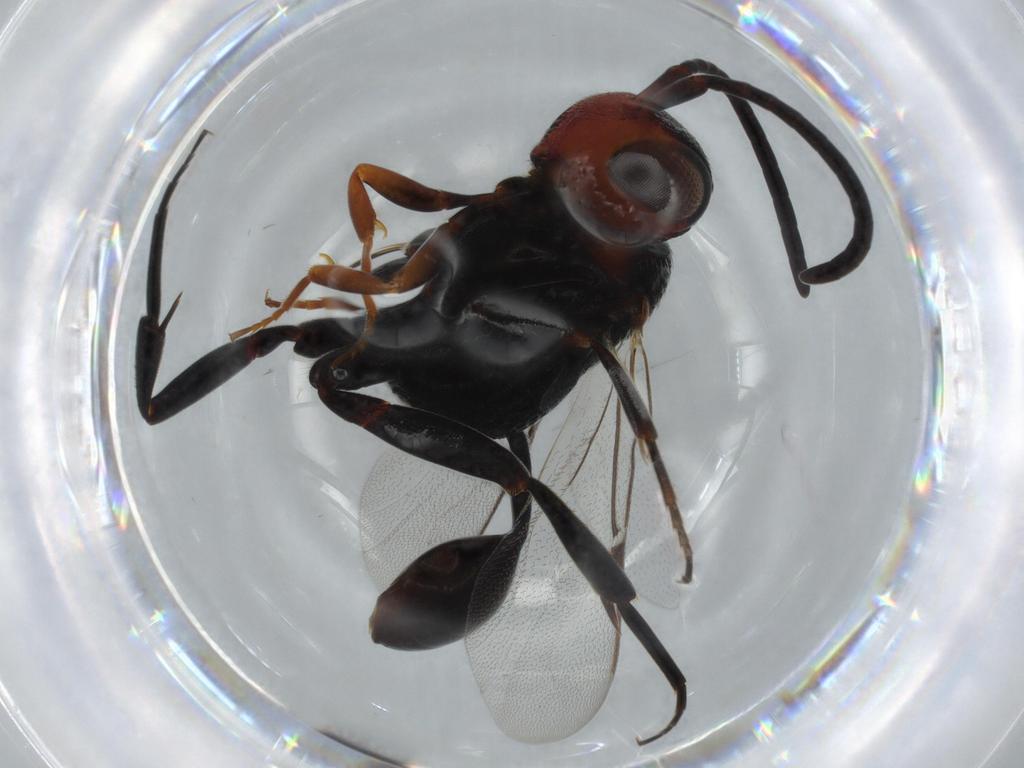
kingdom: Animalia
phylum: Arthropoda
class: Insecta
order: Hymenoptera
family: Evaniidae
